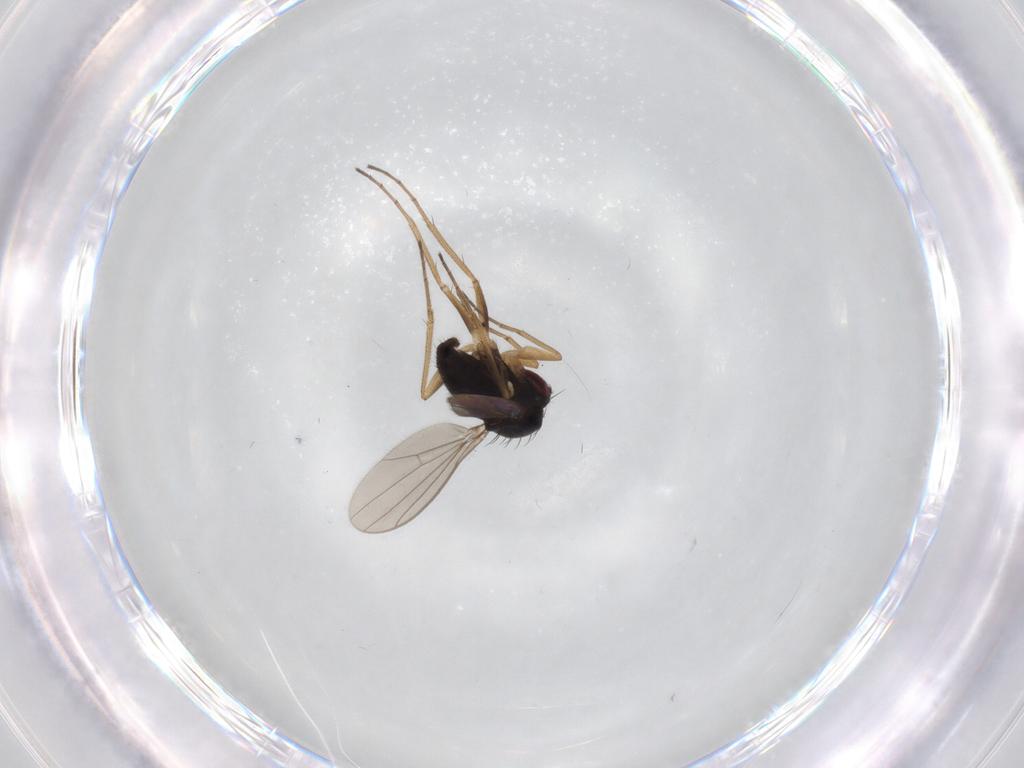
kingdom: Animalia
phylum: Arthropoda
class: Insecta
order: Diptera
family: Dolichopodidae
